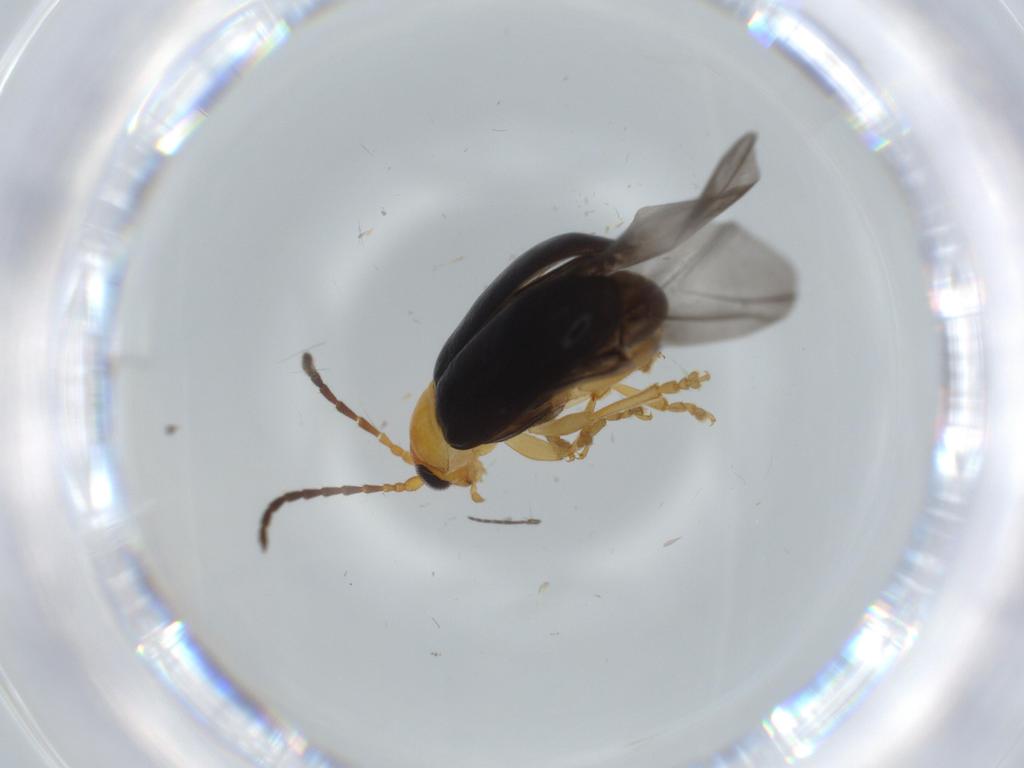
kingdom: Animalia
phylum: Arthropoda
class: Insecta
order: Coleoptera
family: Chrysomelidae
